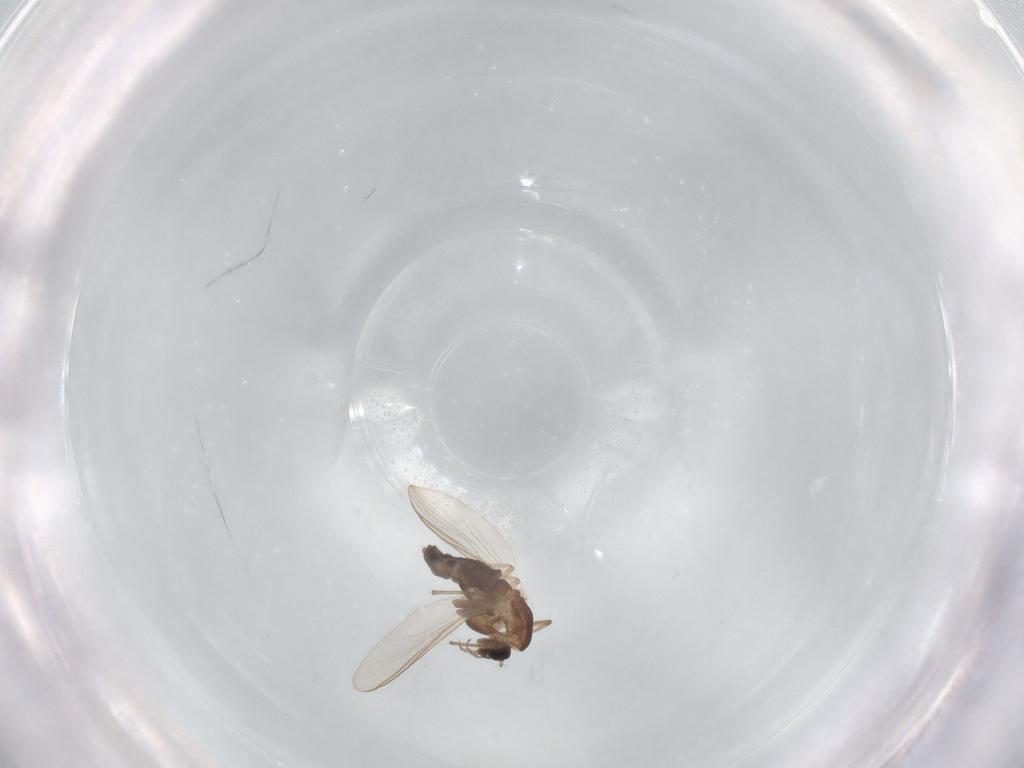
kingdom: Animalia
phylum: Arthropoda
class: Insecta
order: Diptera
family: Chironomidae
